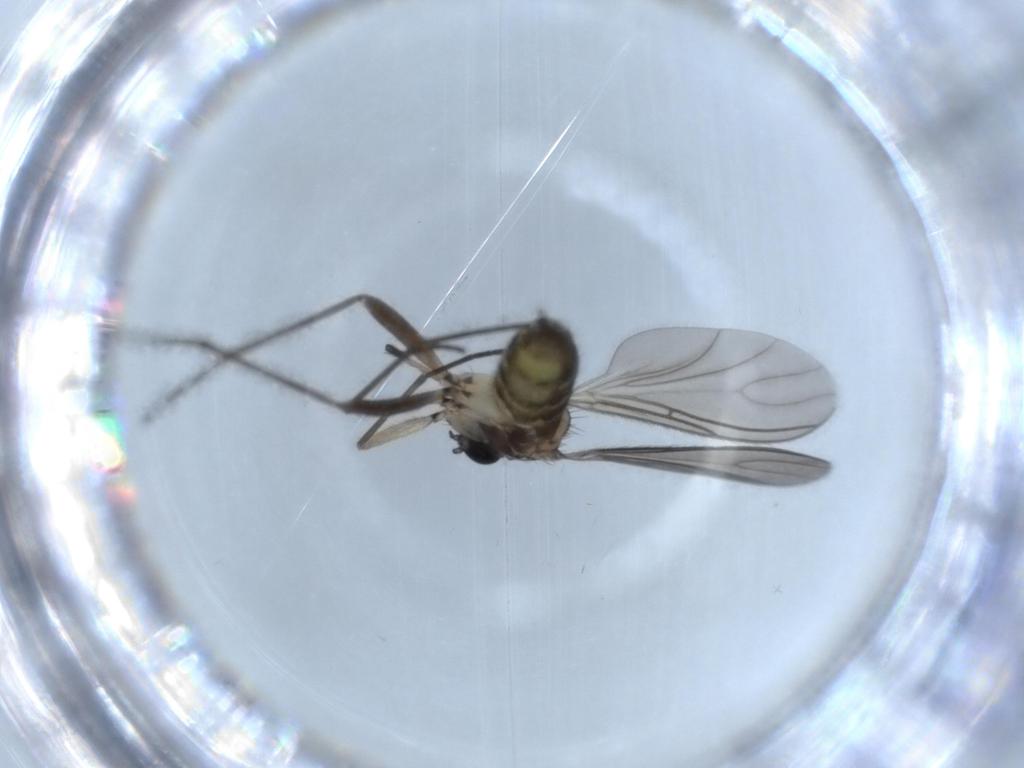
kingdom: Animalia
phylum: Arthropoda
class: Insecta
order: Diptera
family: Sciaridae
